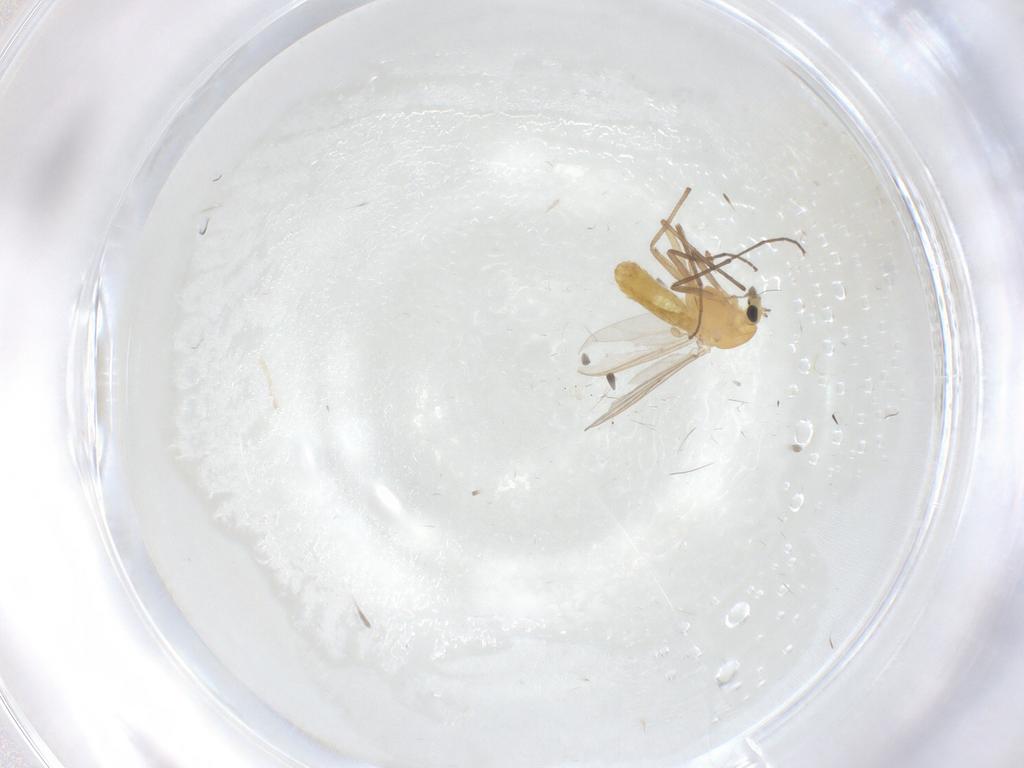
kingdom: Animalia
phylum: Arthropoda
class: Insecta
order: Diptera
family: Chironomidae
